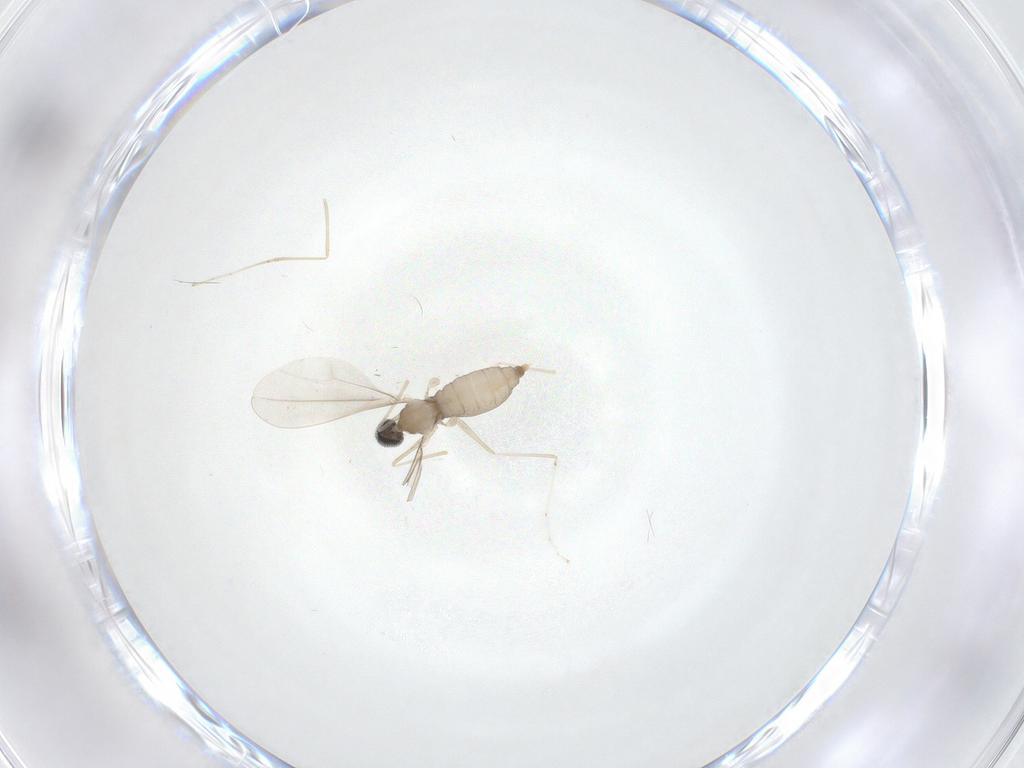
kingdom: Animalia
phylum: Arthropoda
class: Insecta
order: Diptera
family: Cecidomyiidae
